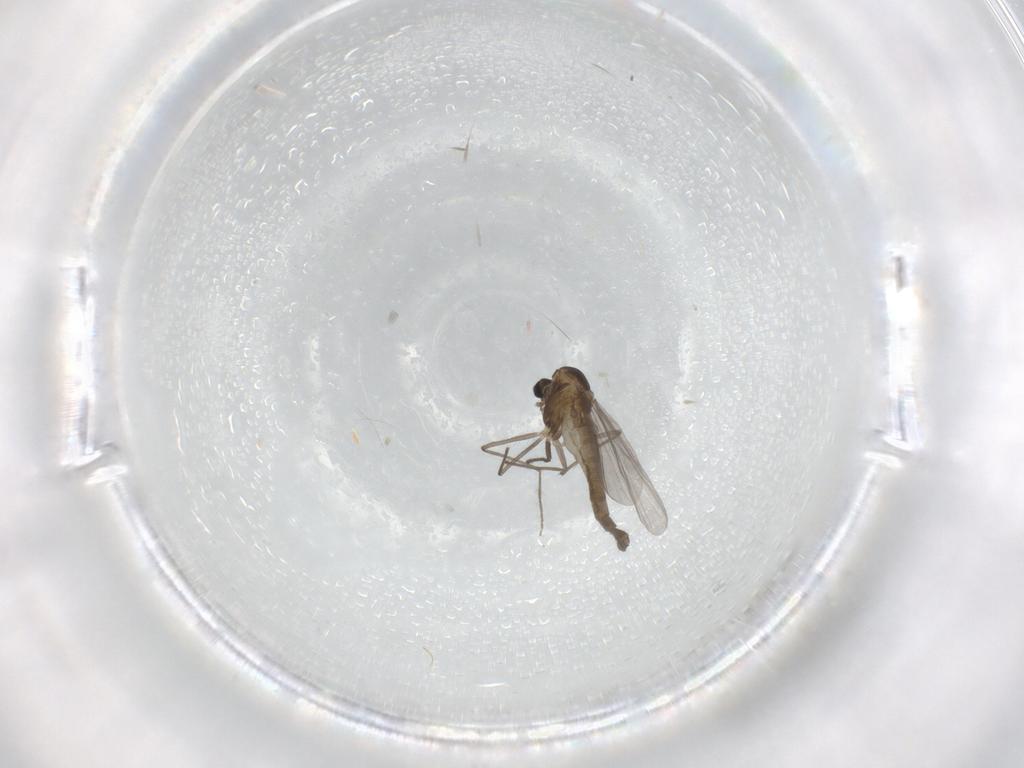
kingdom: Animalia
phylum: Arthropoda
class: Insecta
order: Diptera
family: Chironomidae
